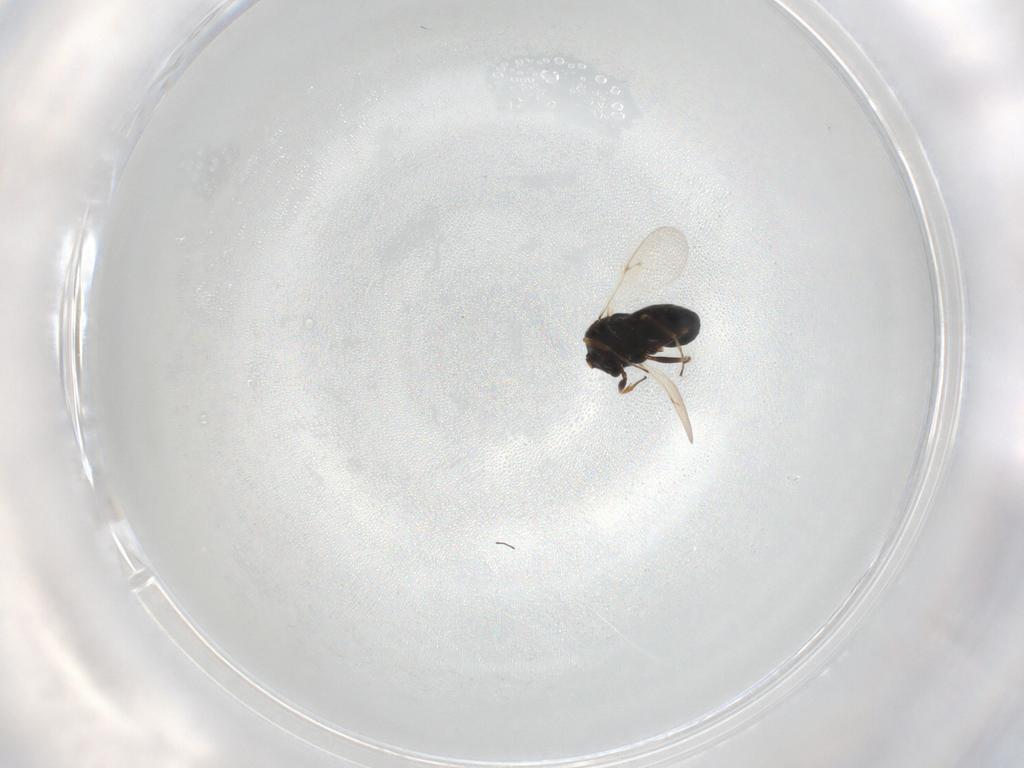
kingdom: Animalia
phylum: Arthropoda
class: Insecta
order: Hymenoptera
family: Scelionidae
